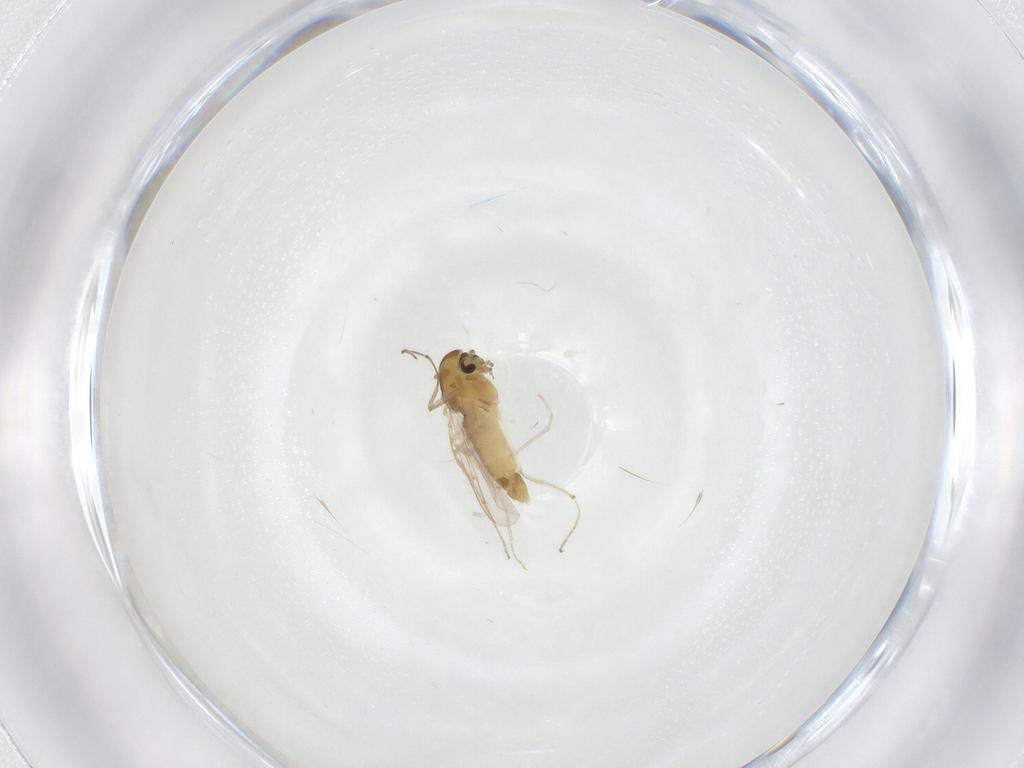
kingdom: Animalia
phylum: Arthropoda
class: Insecta
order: Diptera
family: Chironomidae
